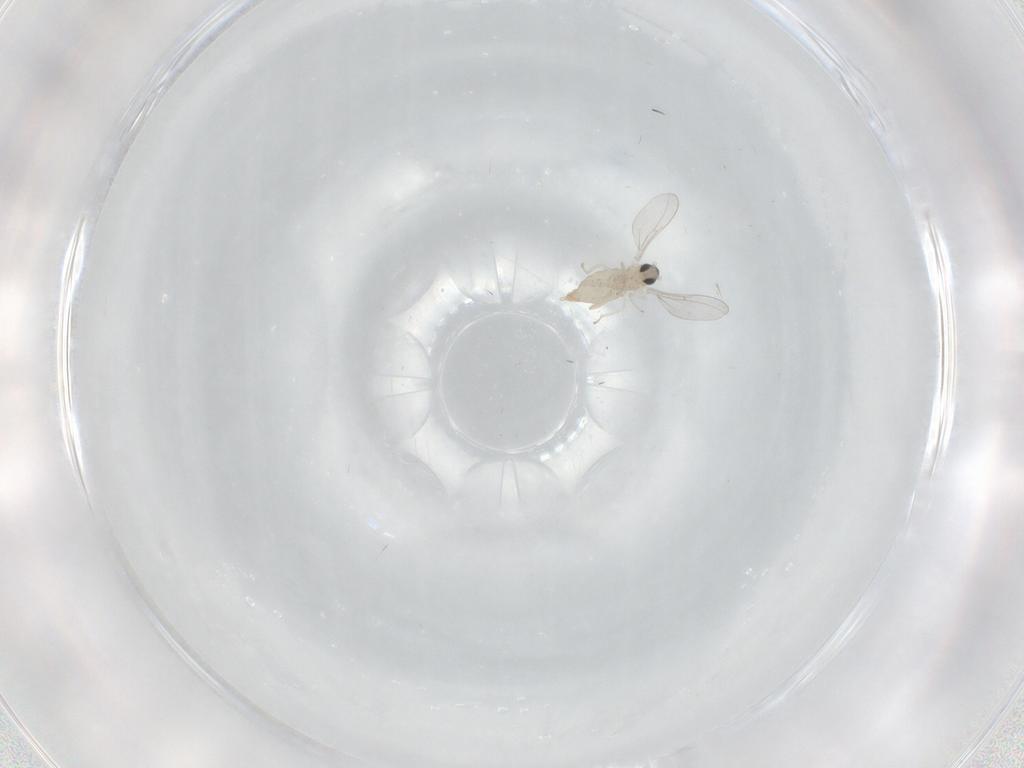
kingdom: Animalia
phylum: Arthropoda
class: Insecta
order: Diptera
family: Cecidomyiidae
